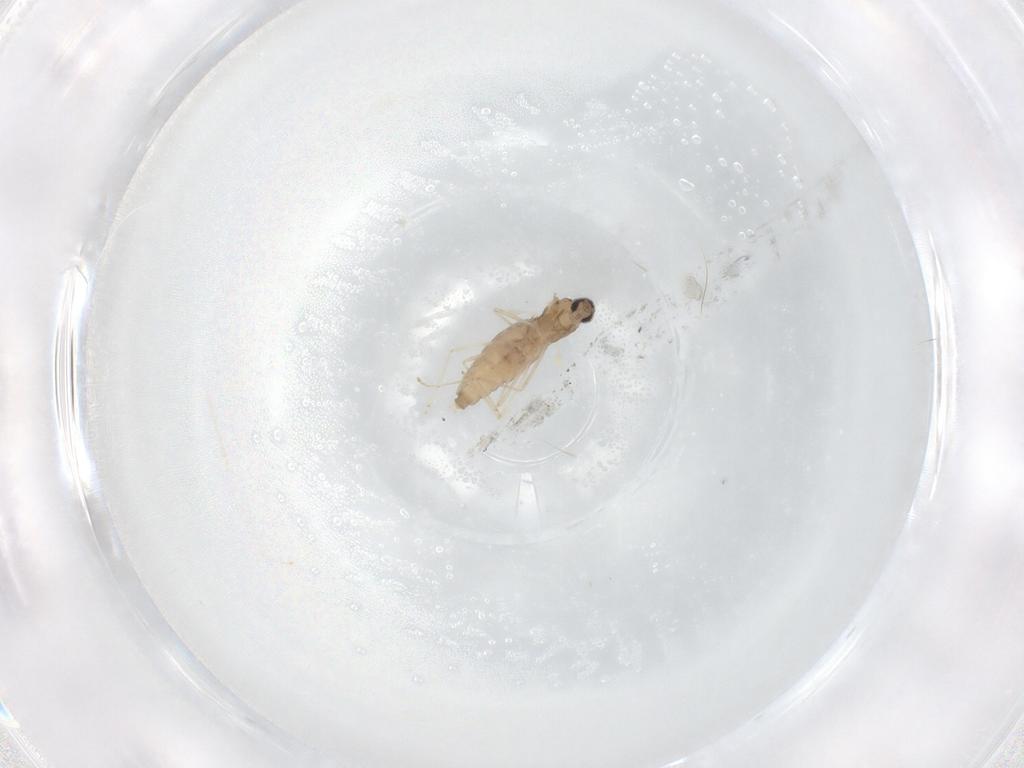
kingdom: Animalia
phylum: Arthropoda
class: Insecta
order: Diptera
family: Cecidomyiidae
